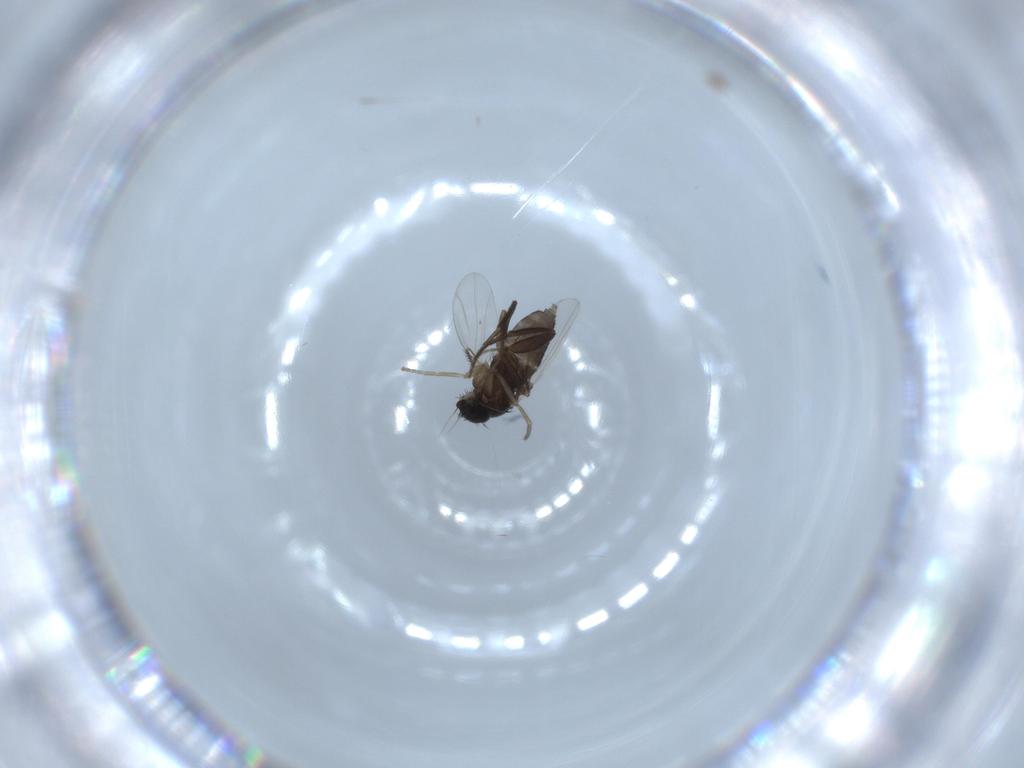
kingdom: Animalia
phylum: Arthropoda
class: Insecta
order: Diptera
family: Phoridae
